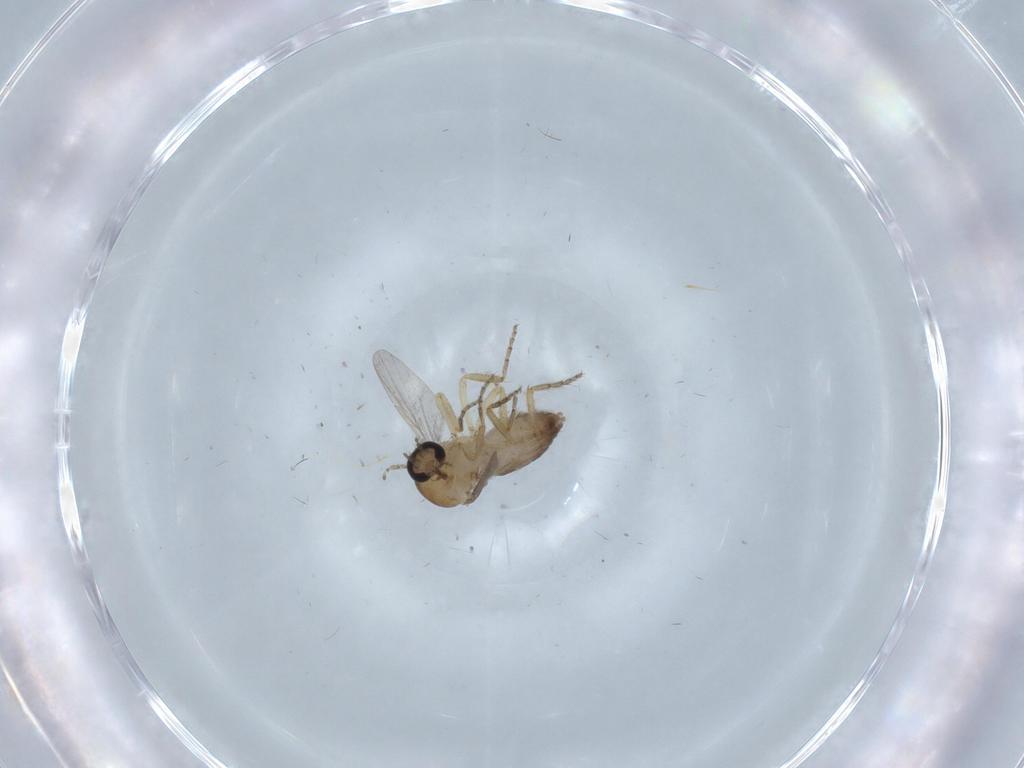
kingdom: Animalia
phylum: Arthropoda
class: Insecta
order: Diptera
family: Ceratopogonidae
